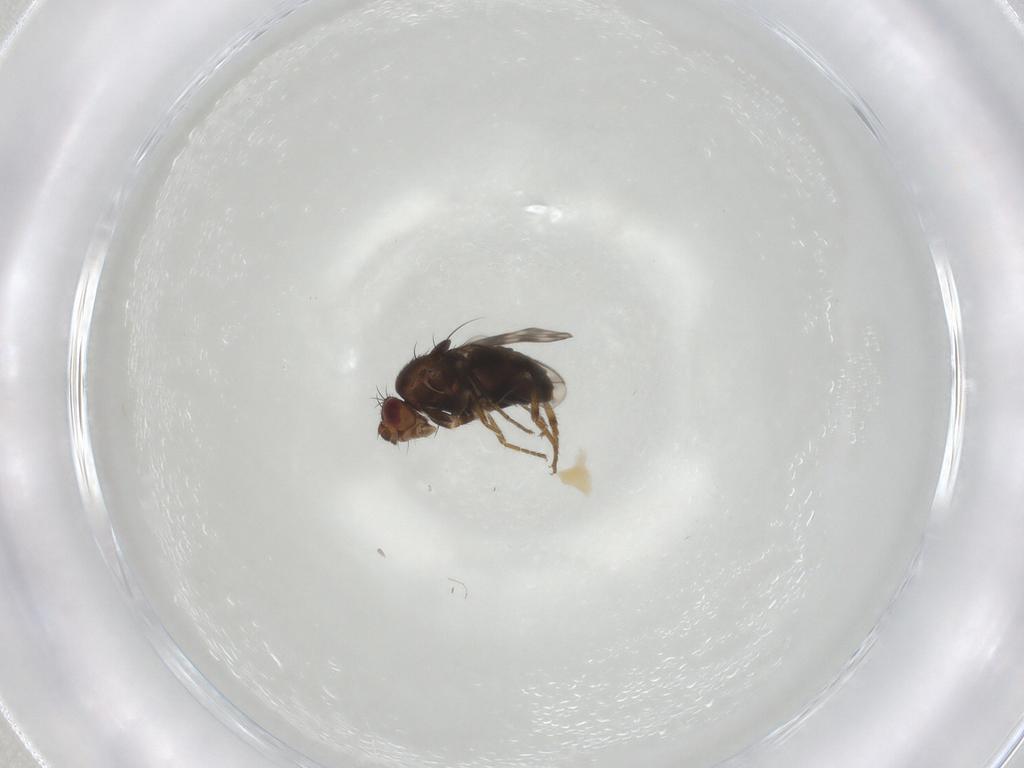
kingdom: Animalia
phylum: Arthropoda
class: Insecta
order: Diptera
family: Sphaeroceridae
